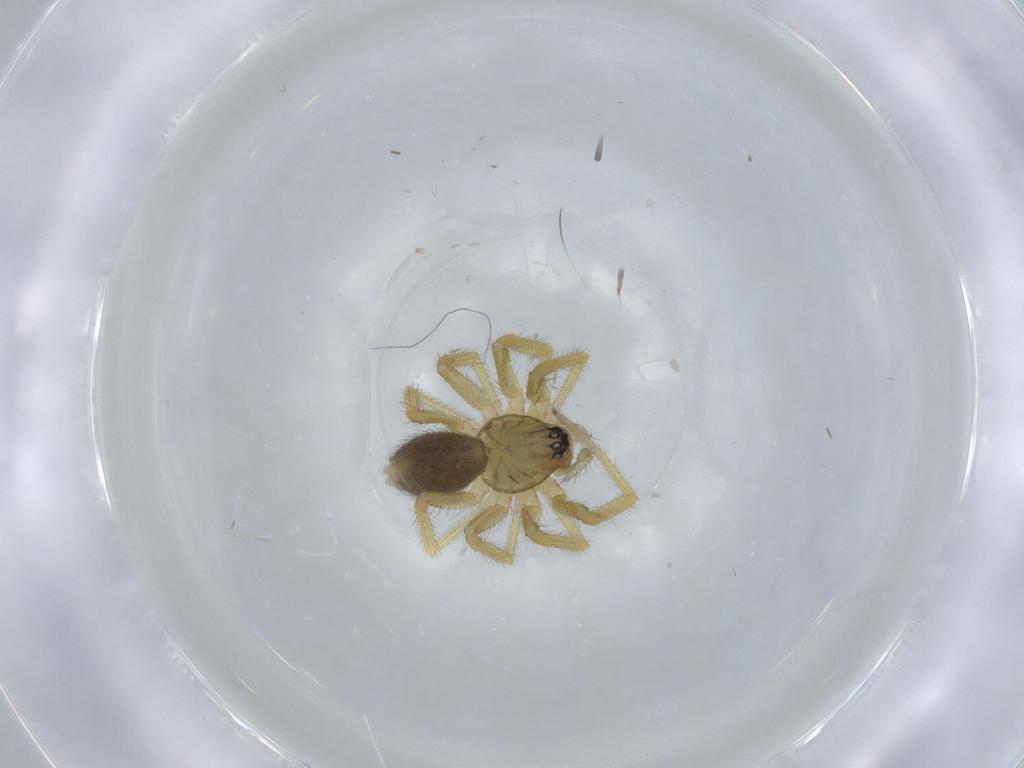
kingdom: Animalia
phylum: Arthropoda
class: Arachnida
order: Araneae
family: Linyphiidae
